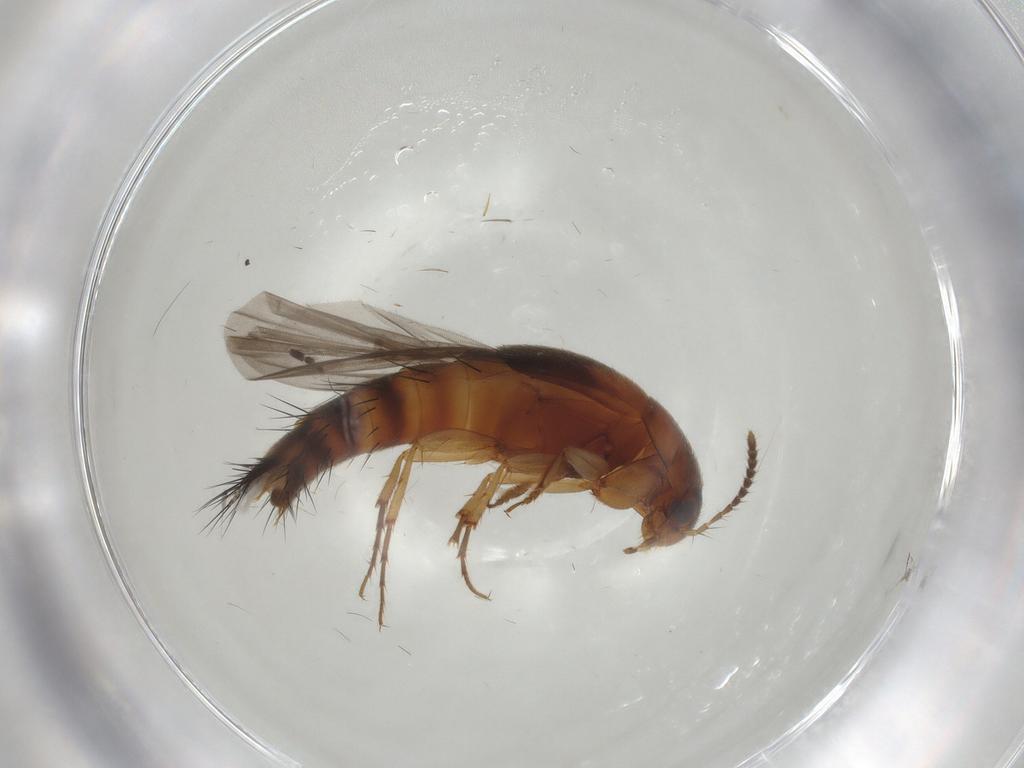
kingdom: Animalia
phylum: Arthropoda
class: Insecta
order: Coleoptera
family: Staphylinidae
